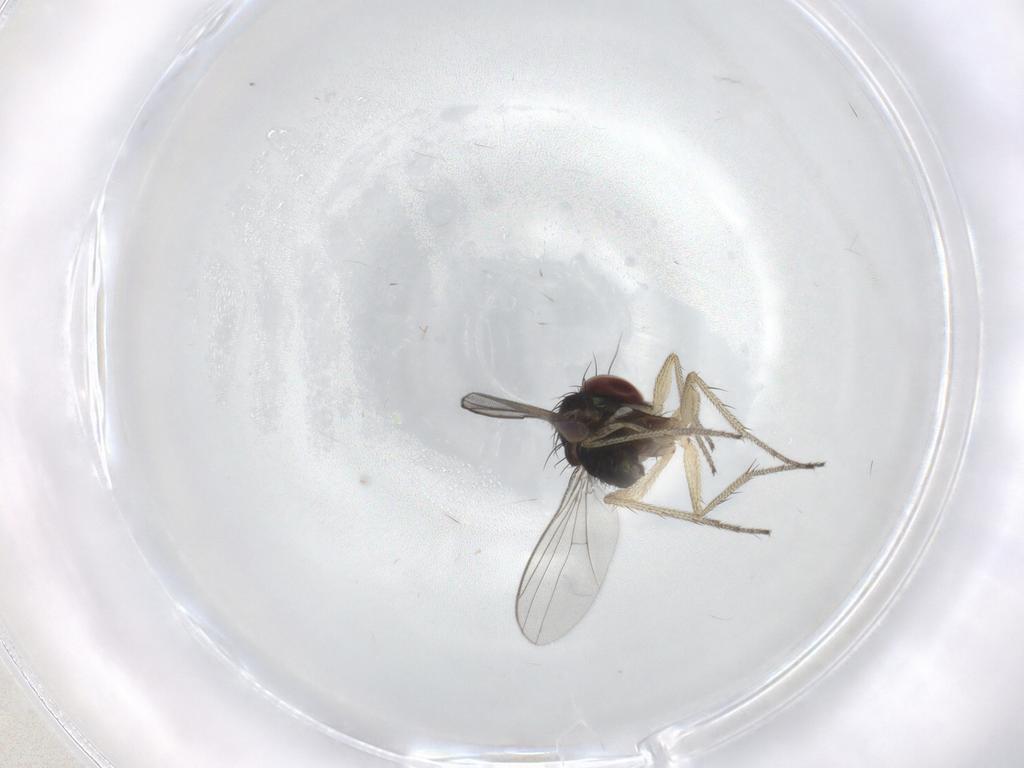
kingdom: Animalia
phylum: Arthropoda
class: Insecta
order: Diptera
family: Dolichopodidae
